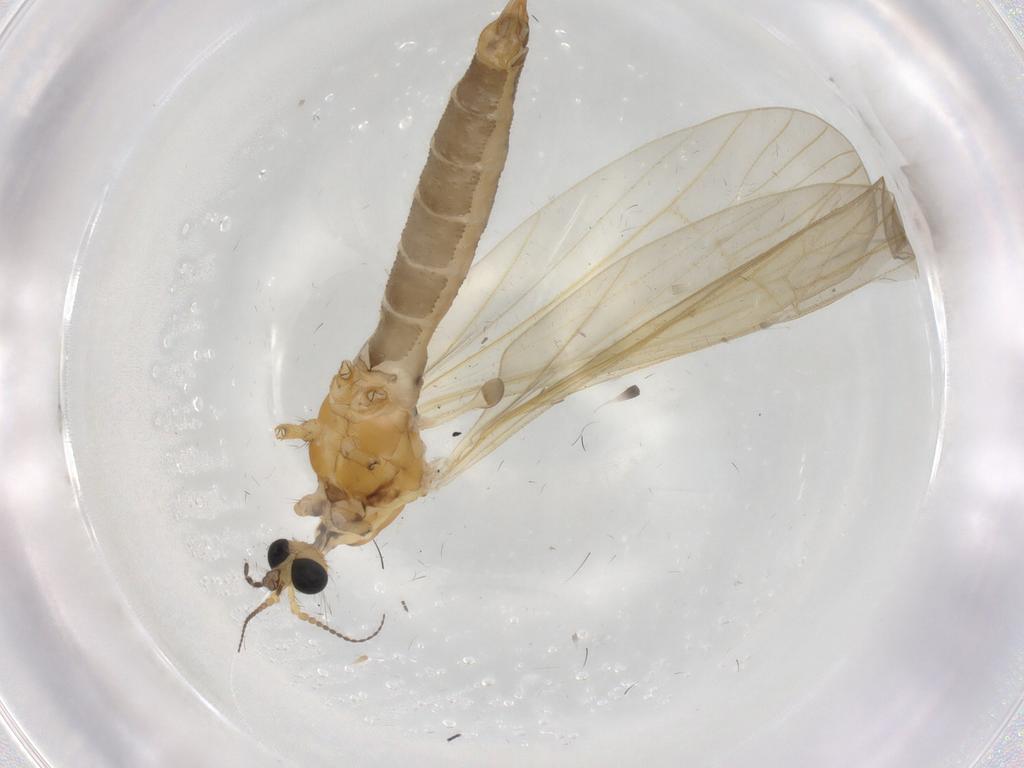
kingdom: Animalia
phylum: Arthropoda
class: Insecta
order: Diptera
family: Limoniidae
